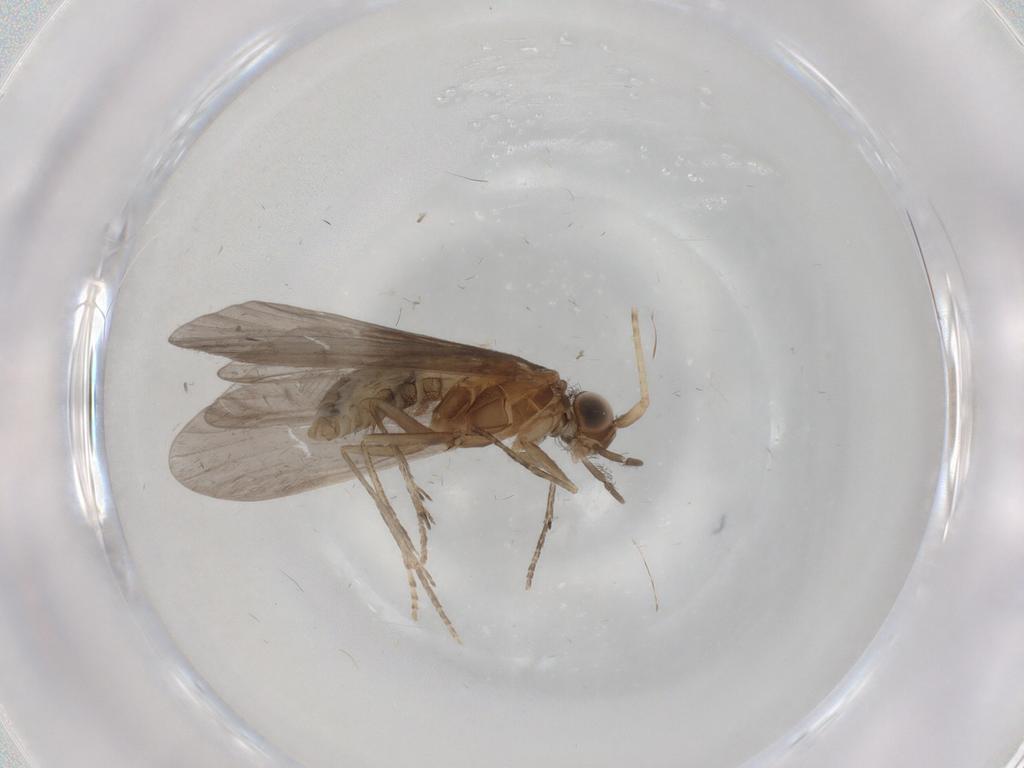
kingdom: Animalia
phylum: Arthropoda
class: Insecta
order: Trichoptera
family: Helicopsychidae
